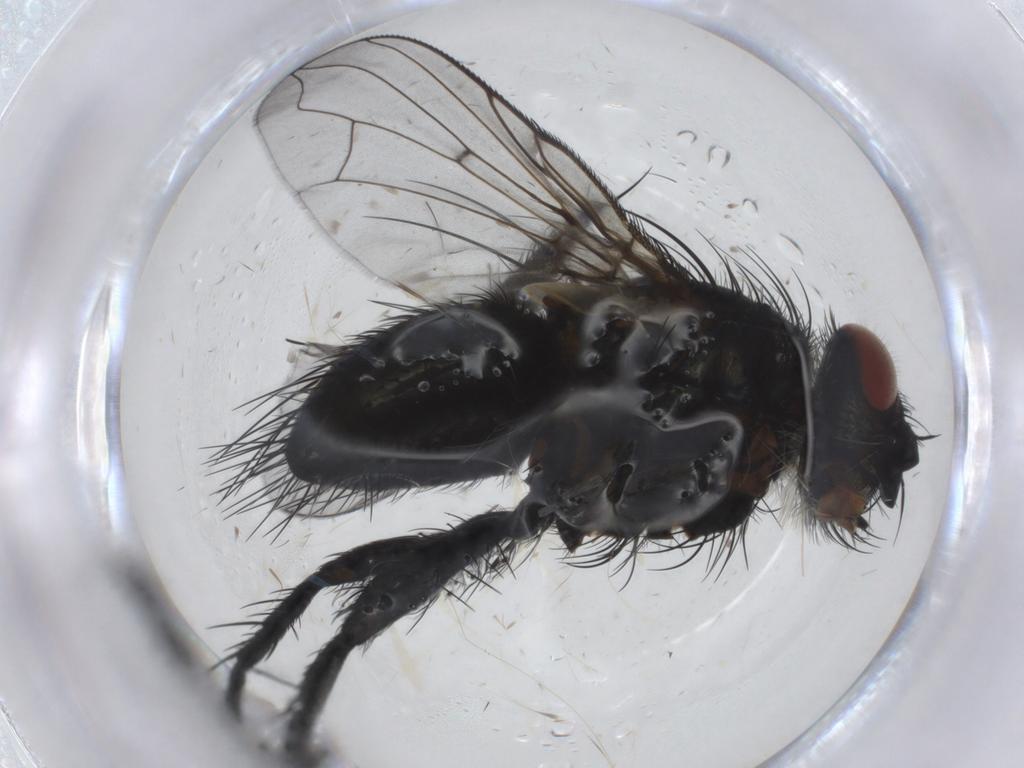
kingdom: Animalia
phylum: Arthropoda
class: Insecta
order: Diptera
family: Tachinidae
